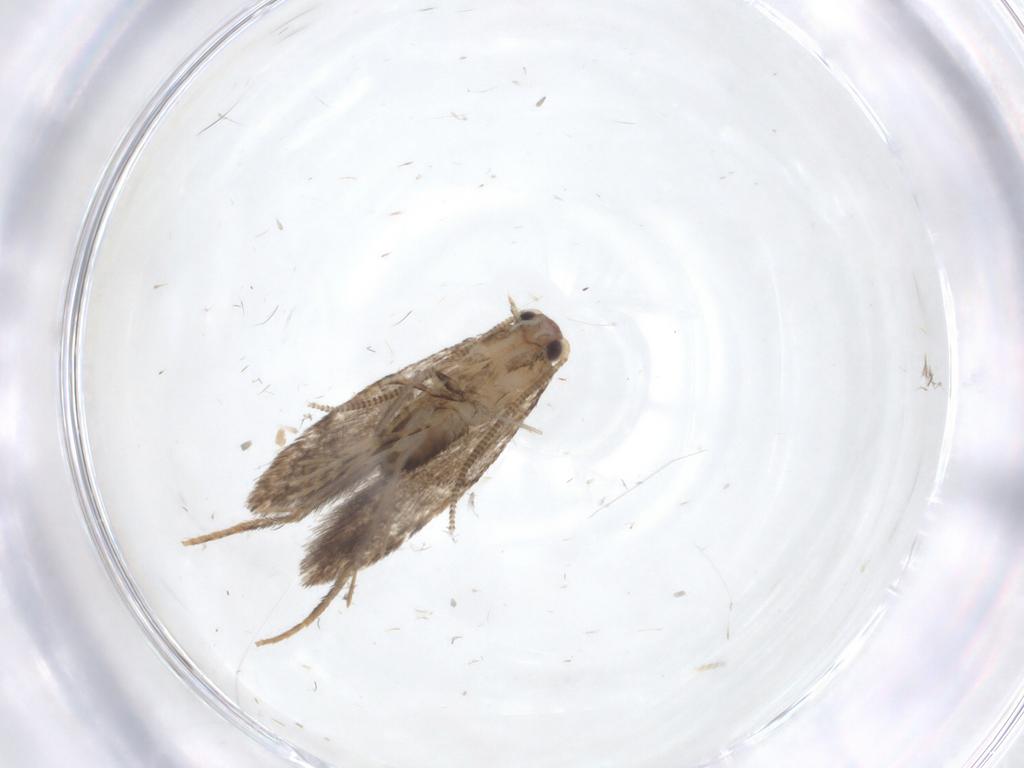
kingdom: Animalia
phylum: Arthropoda
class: Insecta
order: Lepidoptera
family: Tineidae
